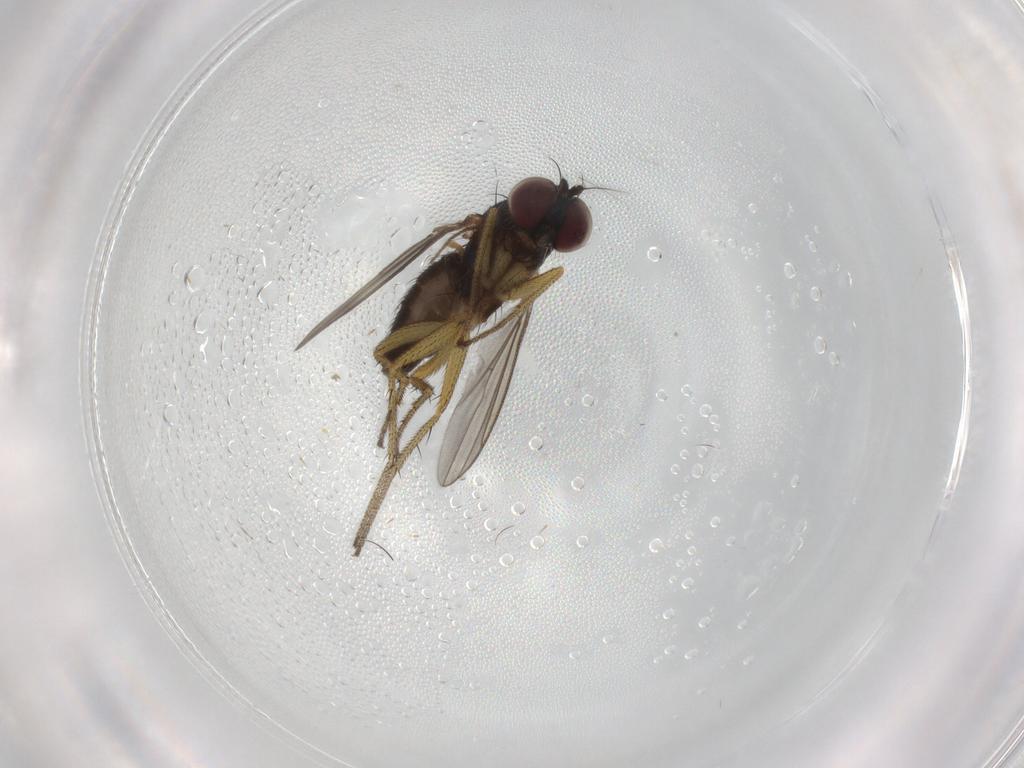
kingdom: Animalia
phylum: Arthropoda
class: Insecta
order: Diptera
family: Dolichopodidae
